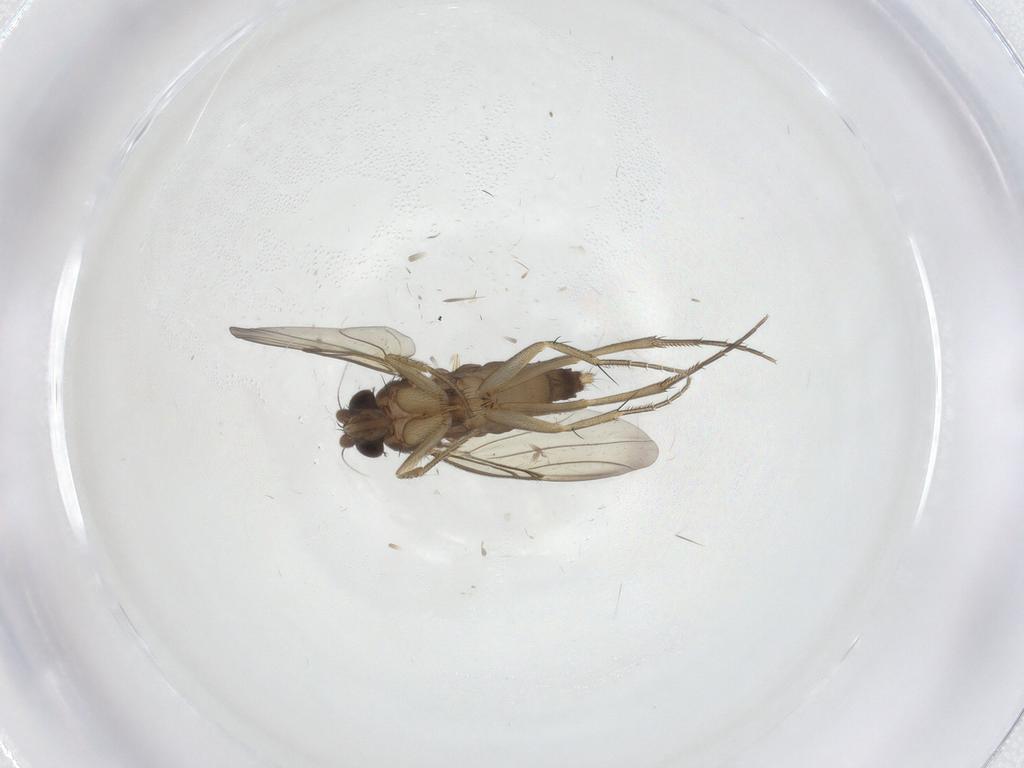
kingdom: Animalia
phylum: Arthropoda
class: Insecta
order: Diptera
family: Phoridae
